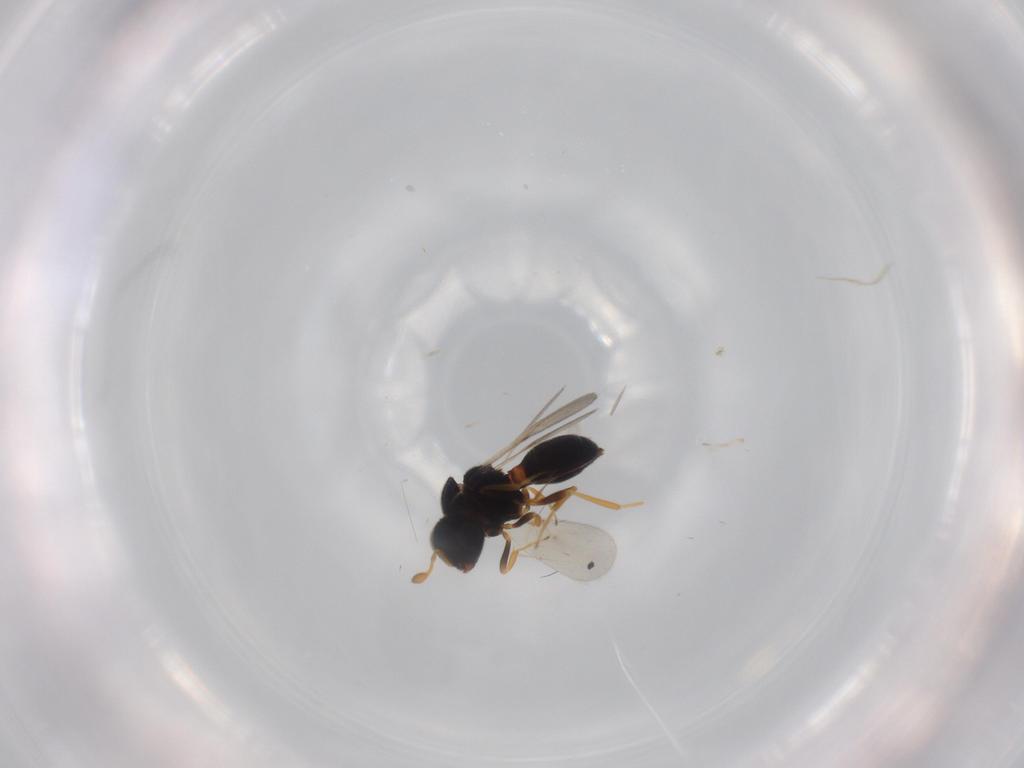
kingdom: Animalia
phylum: Arthropoda
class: Insecta
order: Hymenoptera
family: Scelionidae
